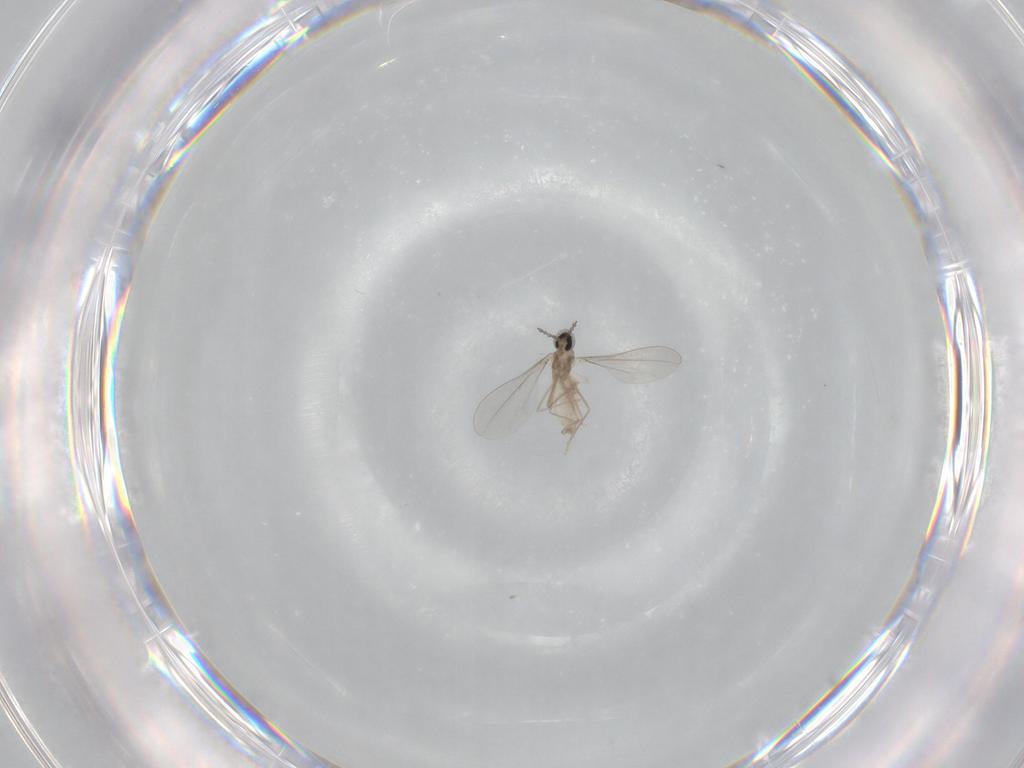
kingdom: Animalia
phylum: Arthropoda
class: Insecta
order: Diptera
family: Cecidomyiidae
